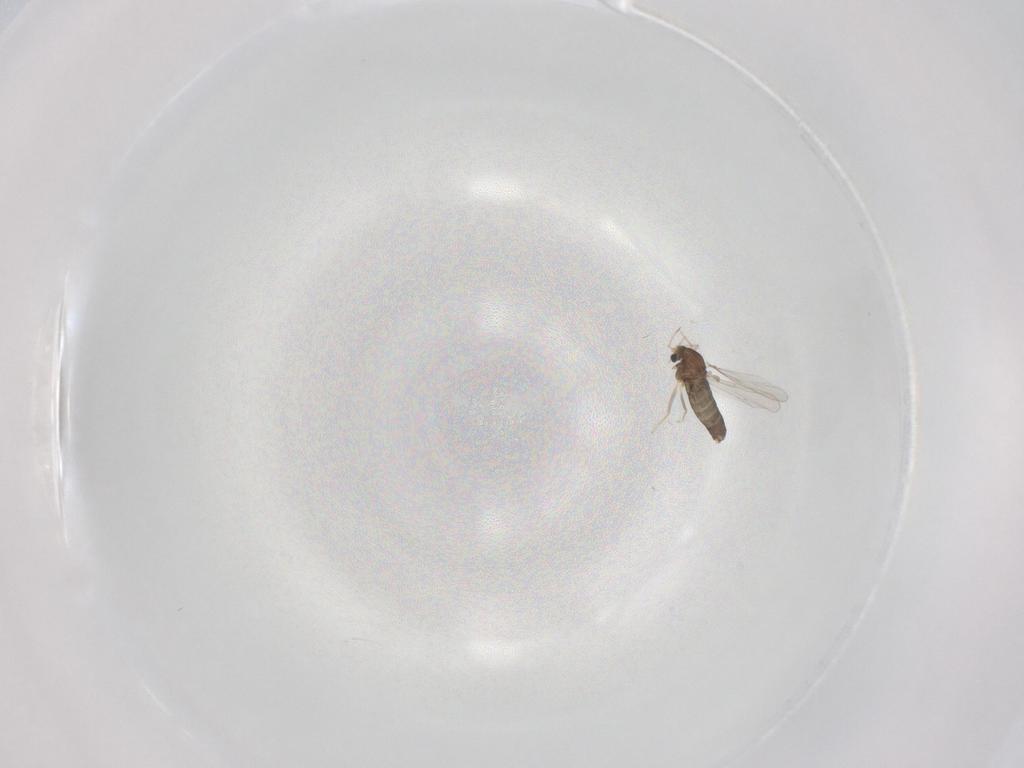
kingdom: Animalia
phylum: Arthropoda
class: Insecta
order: Diptera
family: Chironomidae
